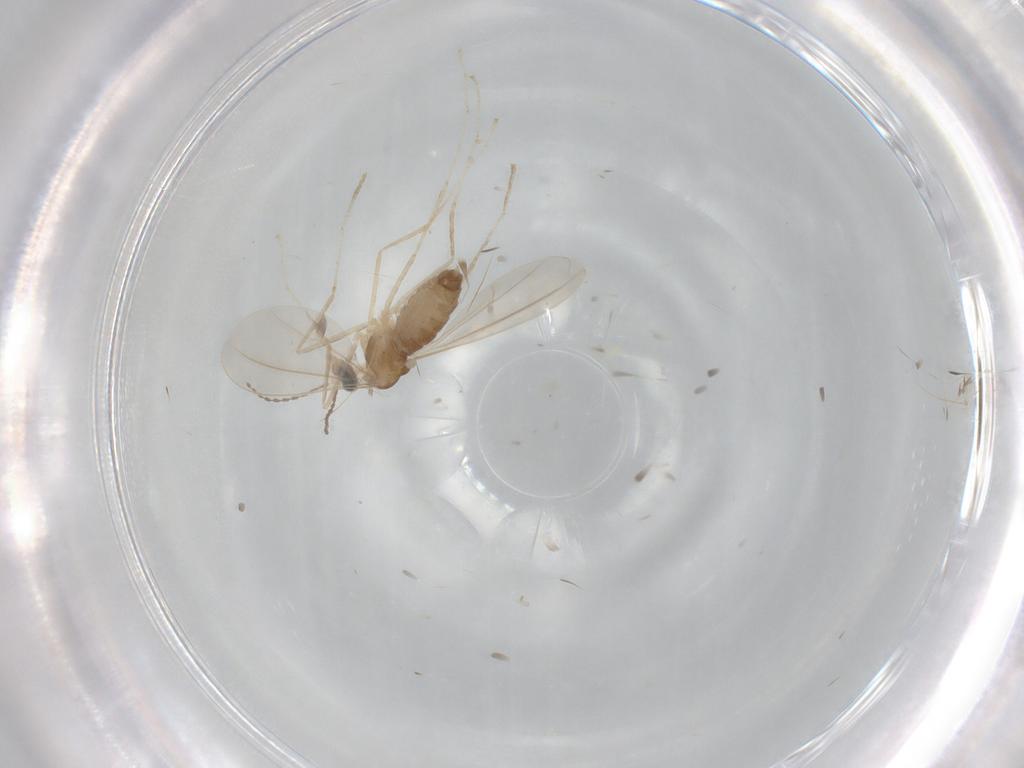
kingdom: Animalia
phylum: Arthropoda
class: Insecta
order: Diptera
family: Cecidomyiidae
